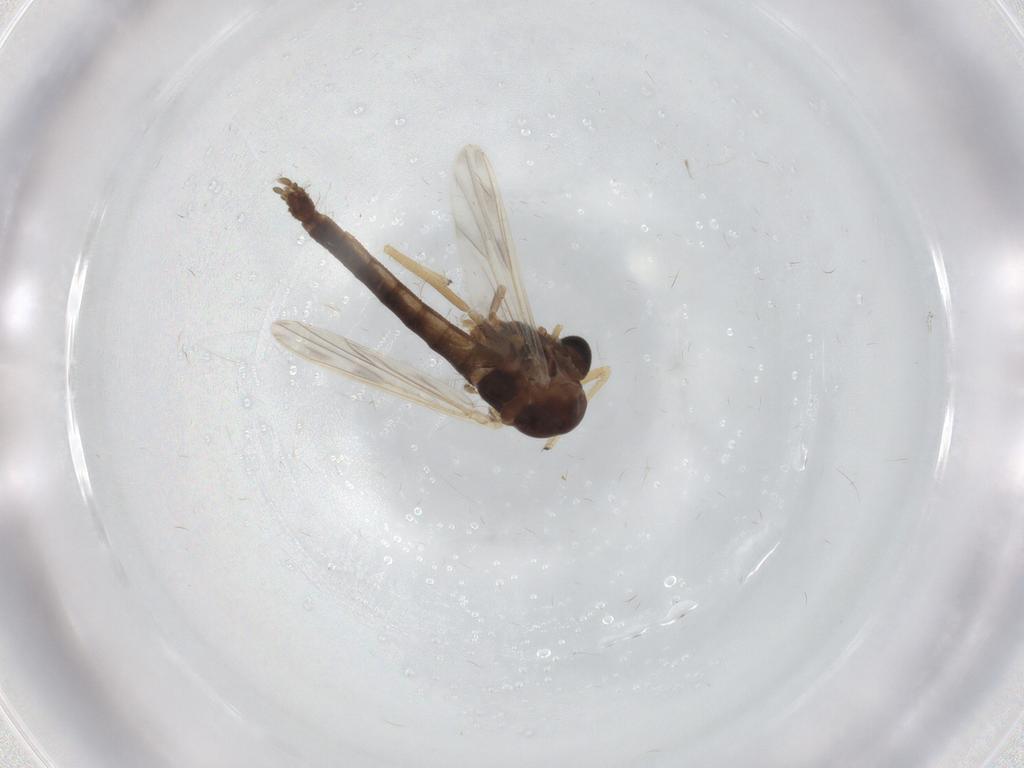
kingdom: Animalia
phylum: Arthropoda
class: Insecta
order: Diptera
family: Chironomidae
